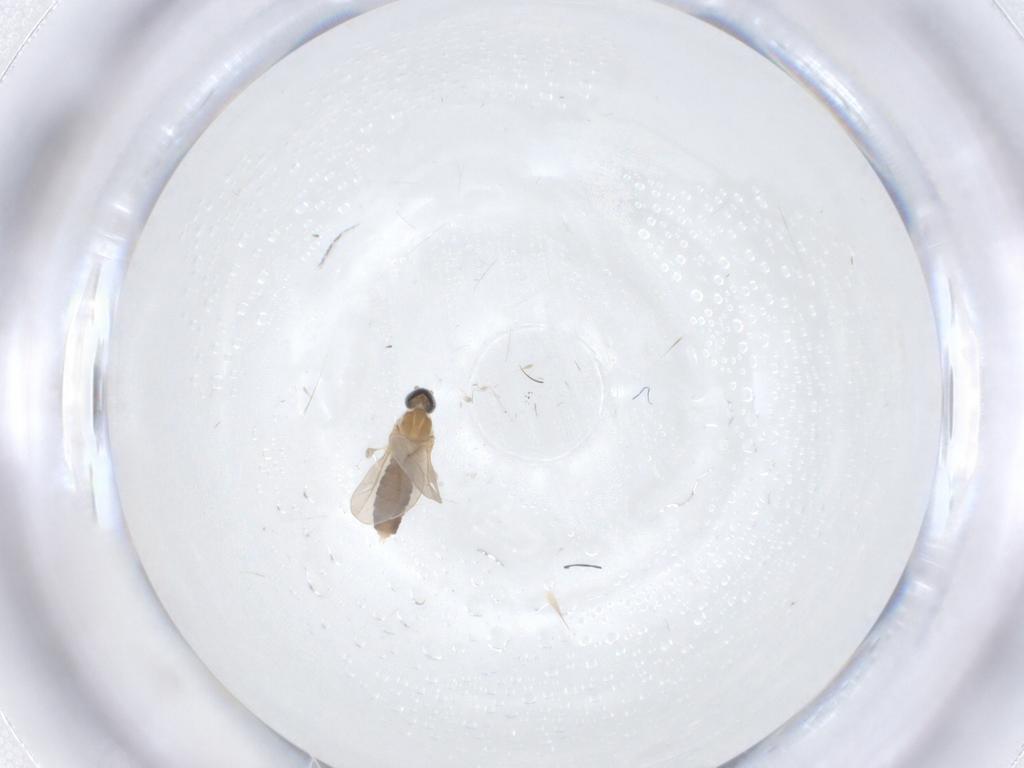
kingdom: Animalia
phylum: Arthropoda
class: Insecta
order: Diptera
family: Cecidomyiidae
